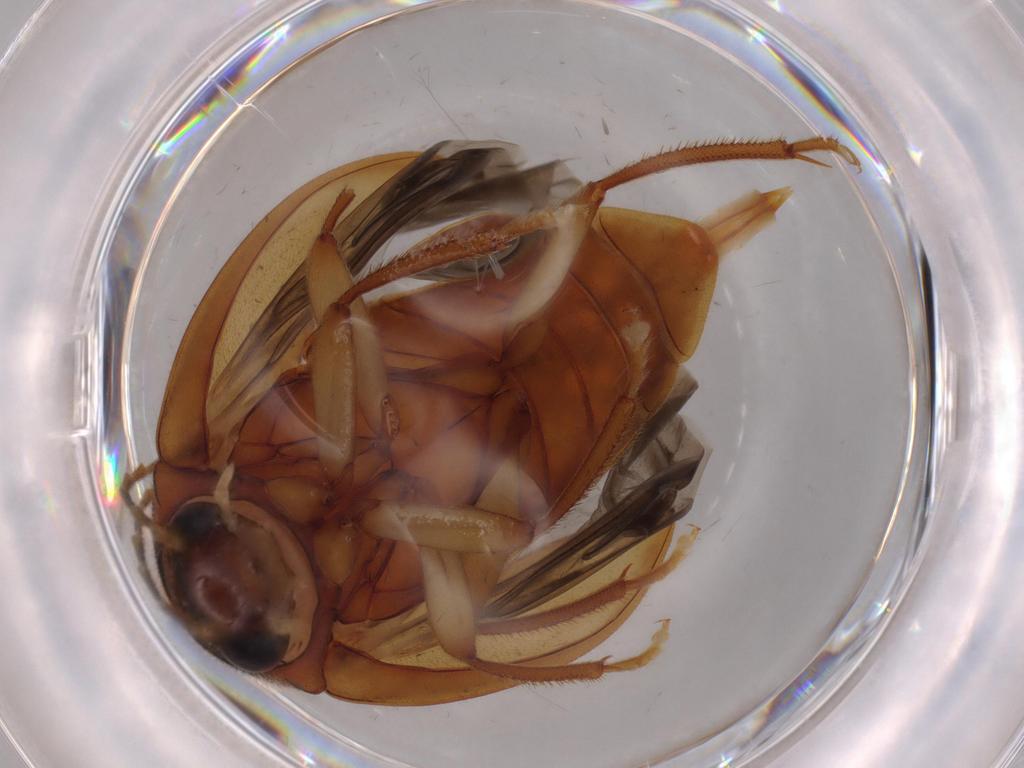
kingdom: Animalia
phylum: Arthropoda
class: Insecta
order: Coleoptera
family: Ptilodactylidae
